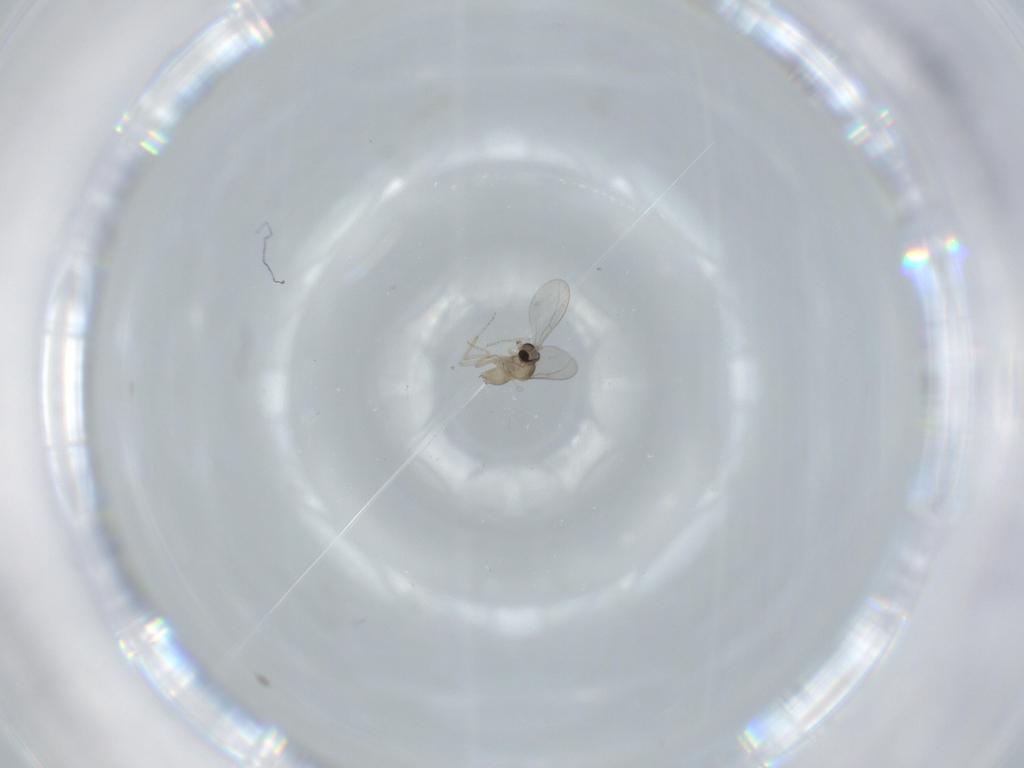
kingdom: Animalia
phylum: Arthropoda
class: Insecta
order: Diptera
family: Cecidomyiidae
